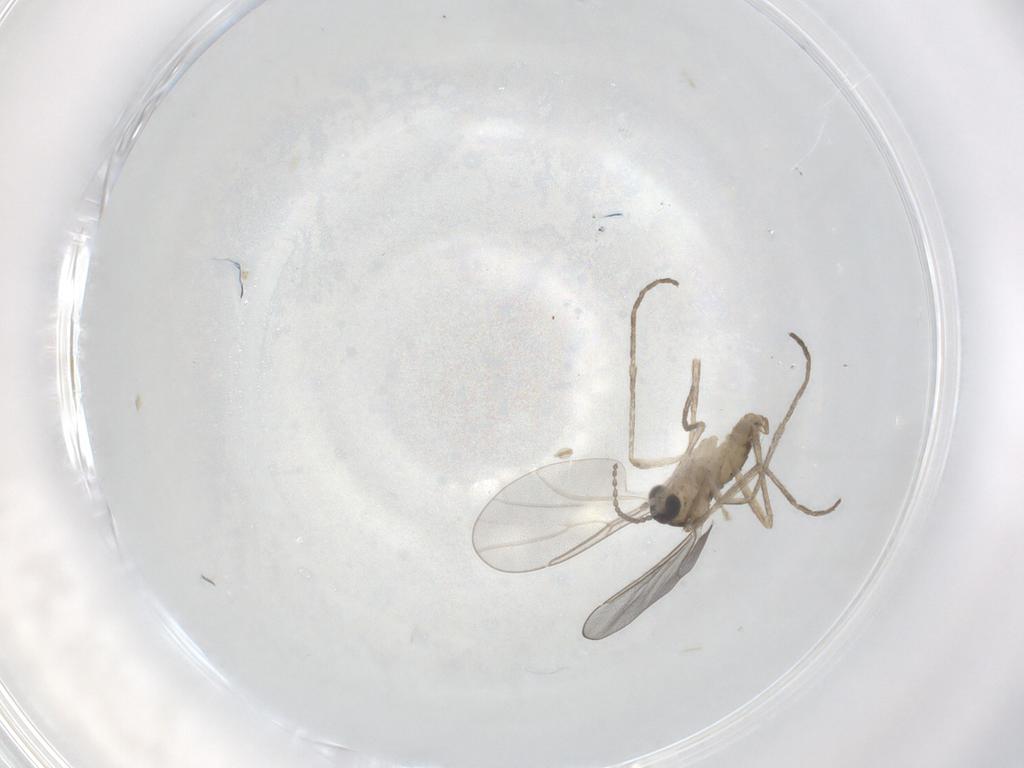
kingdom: Animalia
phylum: Arthropoda
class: Insecta
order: Diptera
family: Cecidomyiidae
